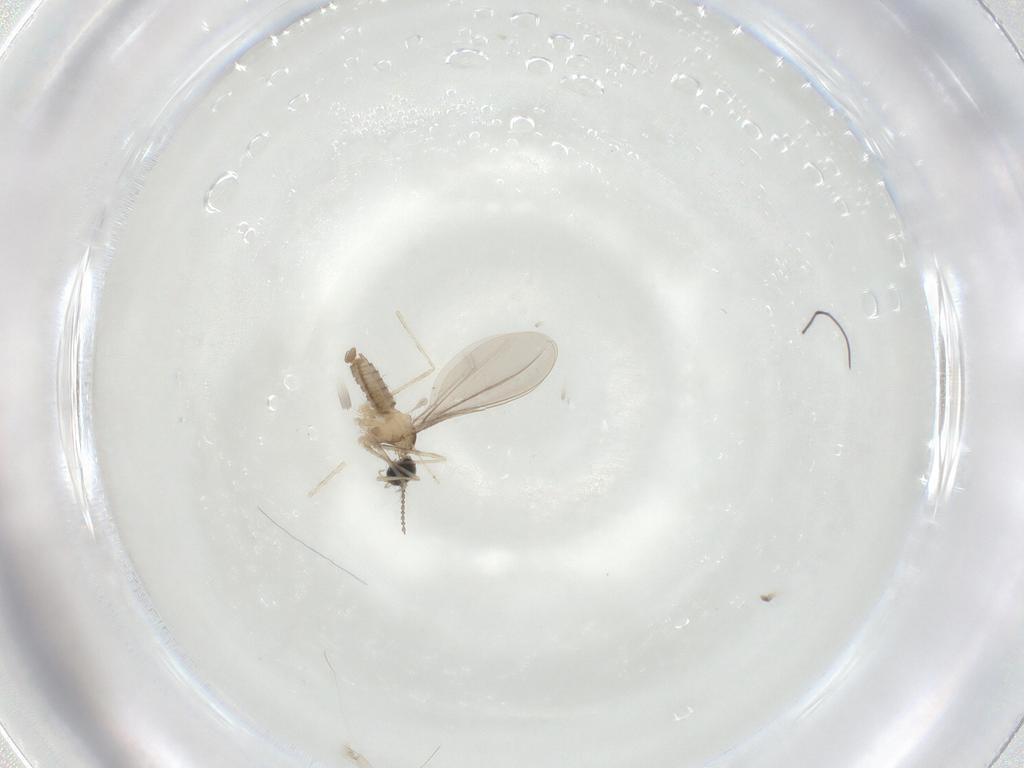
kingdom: Animalia
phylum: Arthropoda
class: Insecta
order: Diptera
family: Cecidomyiidae
